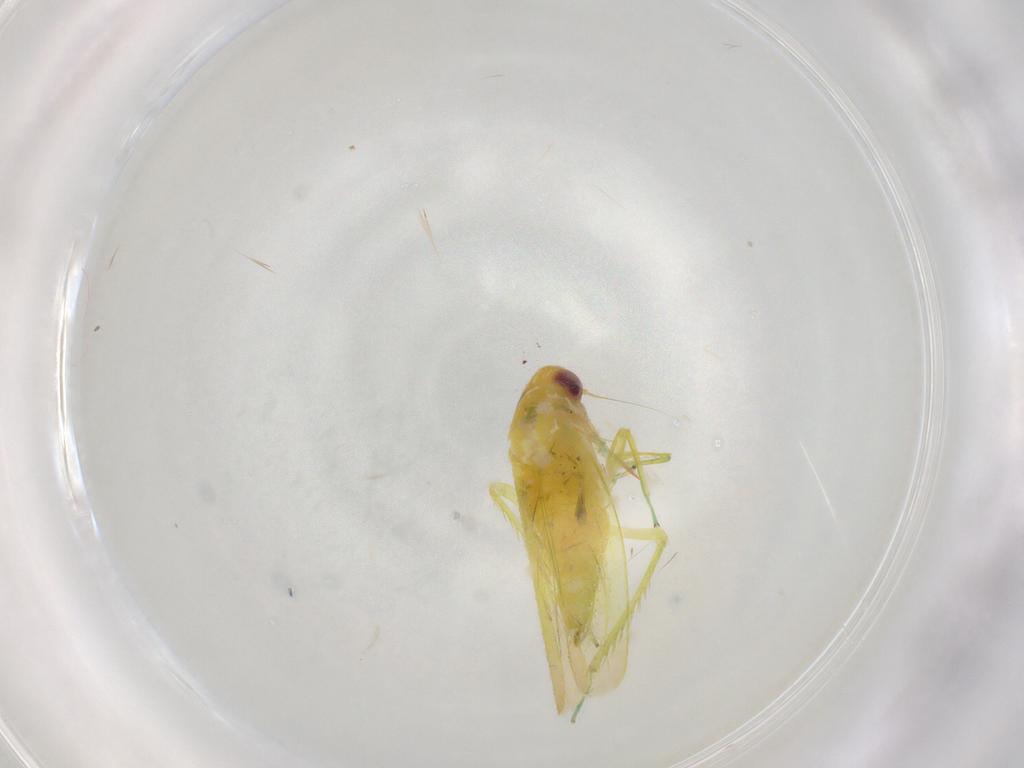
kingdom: Animalia
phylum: Arthropoda
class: Insecta
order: Hemiptera
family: Cicadellidae
